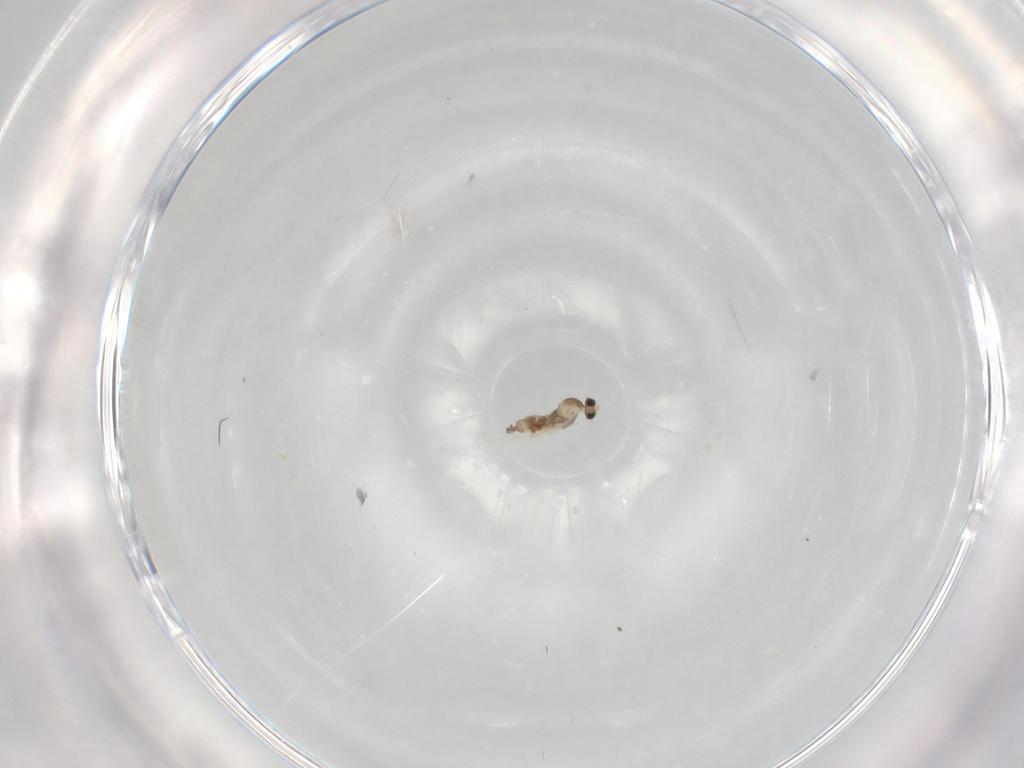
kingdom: Animalia
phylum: Arthropoda
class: Insecta
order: Diptera
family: Cecidomyiidae
